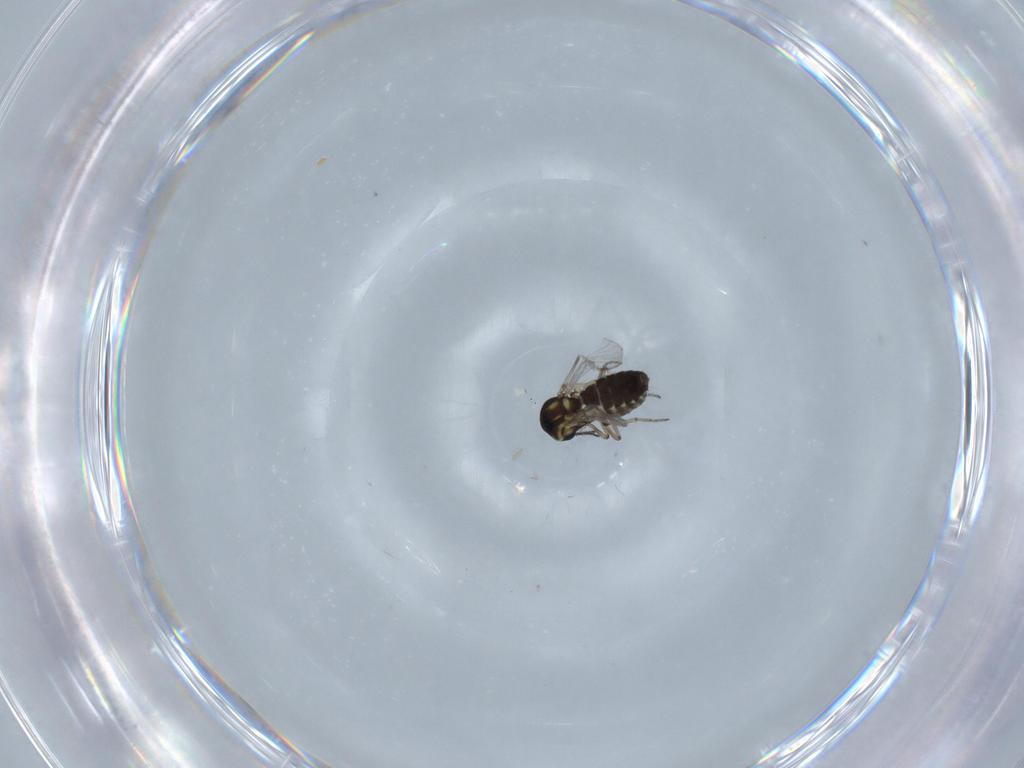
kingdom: Animalia
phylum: Arthropoda
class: Insecta
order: Diptera
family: Ceratopogonidae
